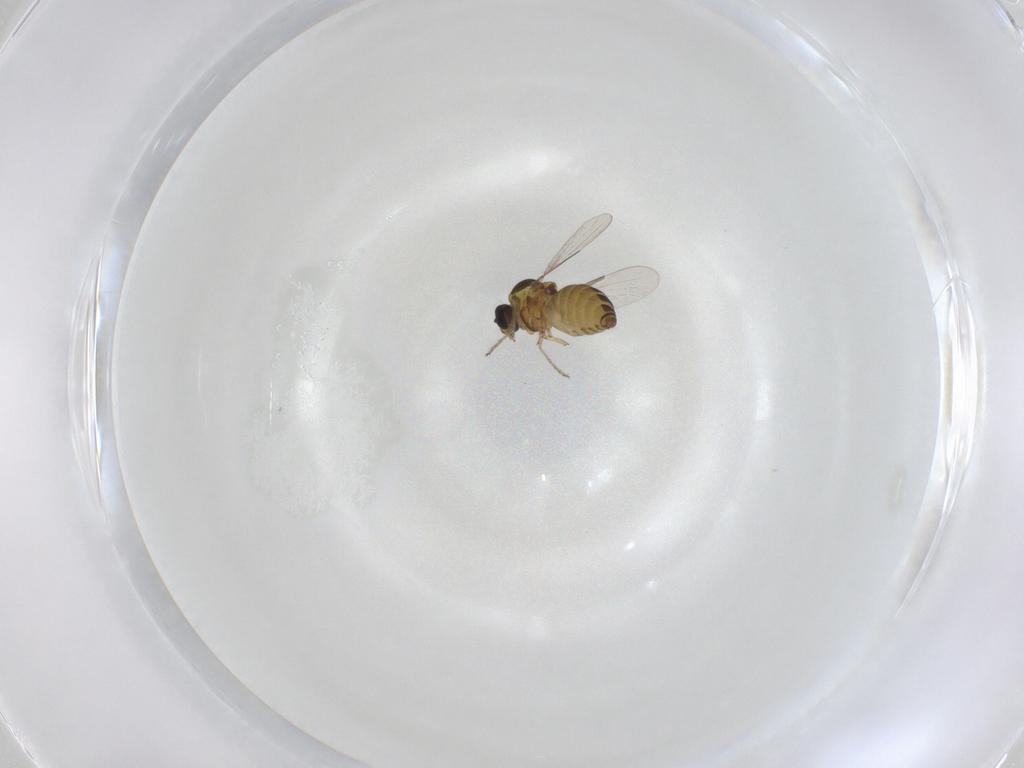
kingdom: Animalia
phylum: Arthropoda
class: Insecta
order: Diptera
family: Ceratopogonidae
